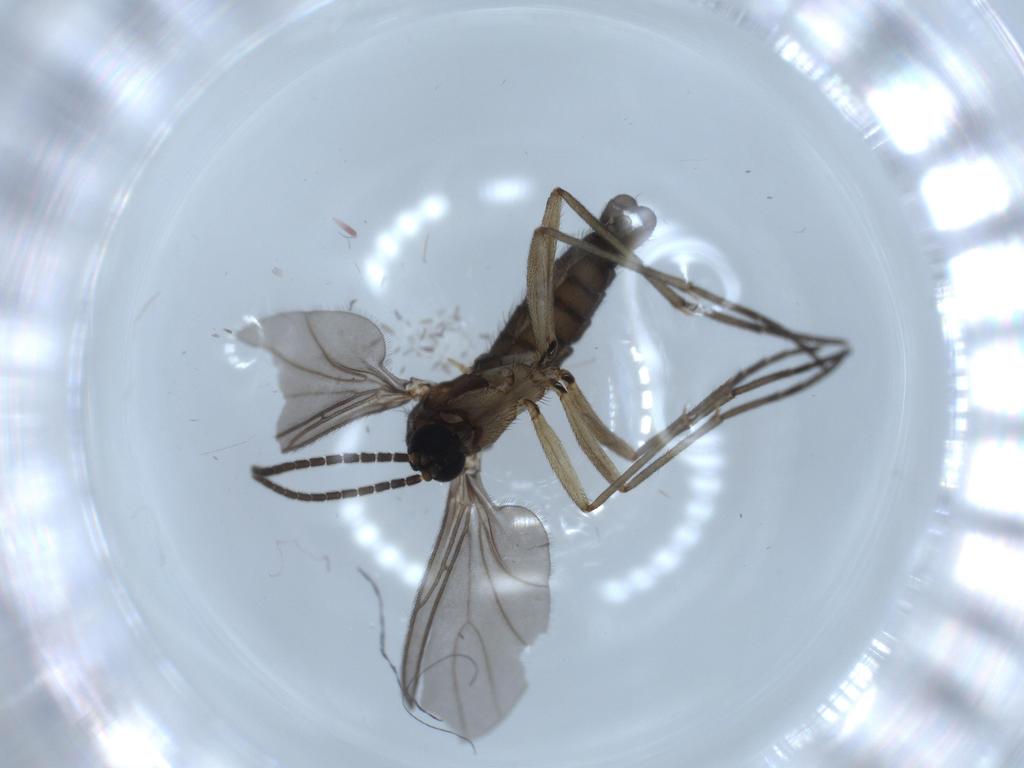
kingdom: Animalia
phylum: Arthropoda
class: Insecta
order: Diptera
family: Sciaridae
